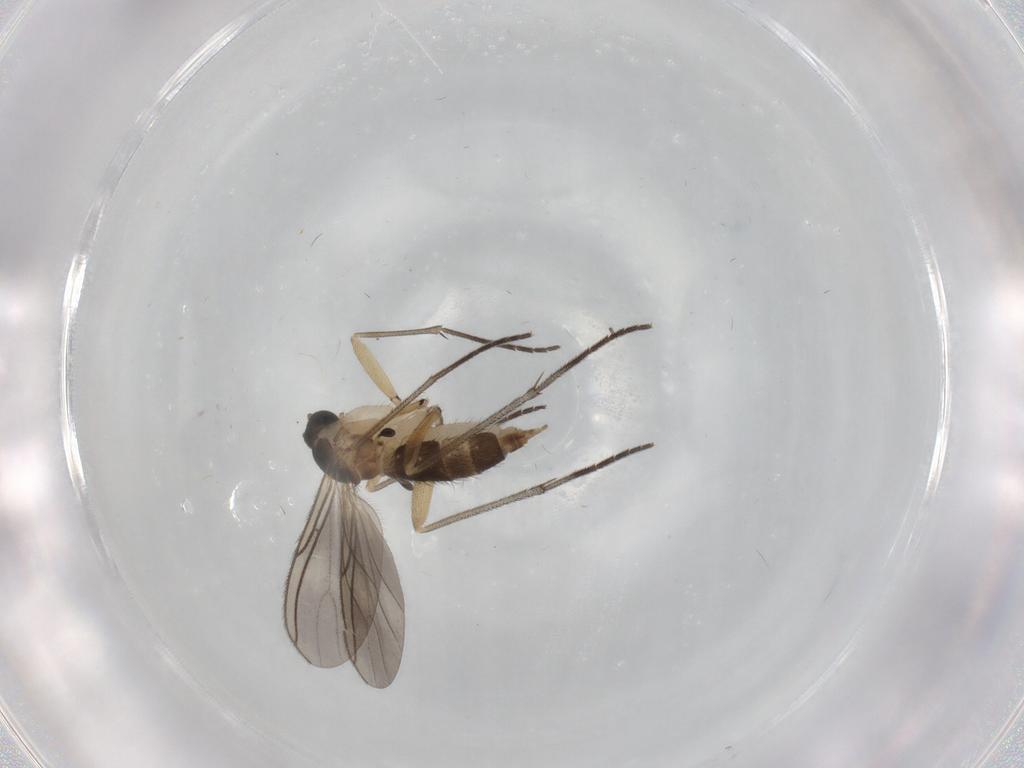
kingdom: Animalia
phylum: Arthropoda
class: Insecta
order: Diptera
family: Sciaridae
